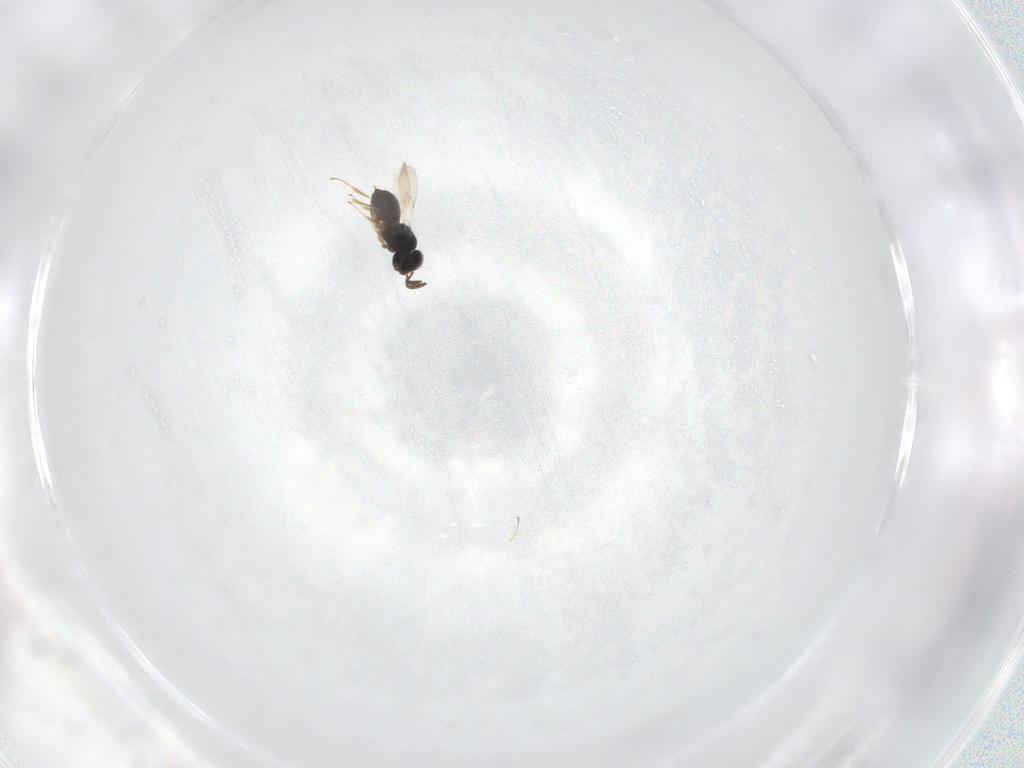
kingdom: Animalia
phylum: Arthropoda
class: Insecta
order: Hymenoptera
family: Scelionidae
